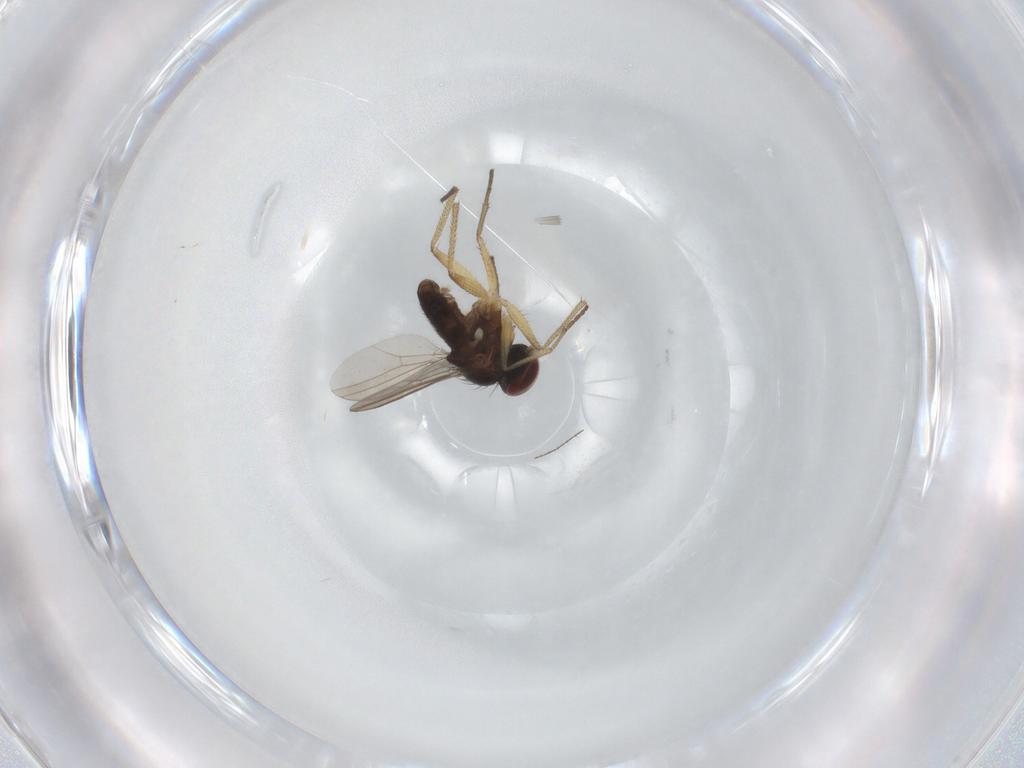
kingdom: Animalia
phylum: Arthropoda
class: Insecta
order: Diptera
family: Dolichopodidae
